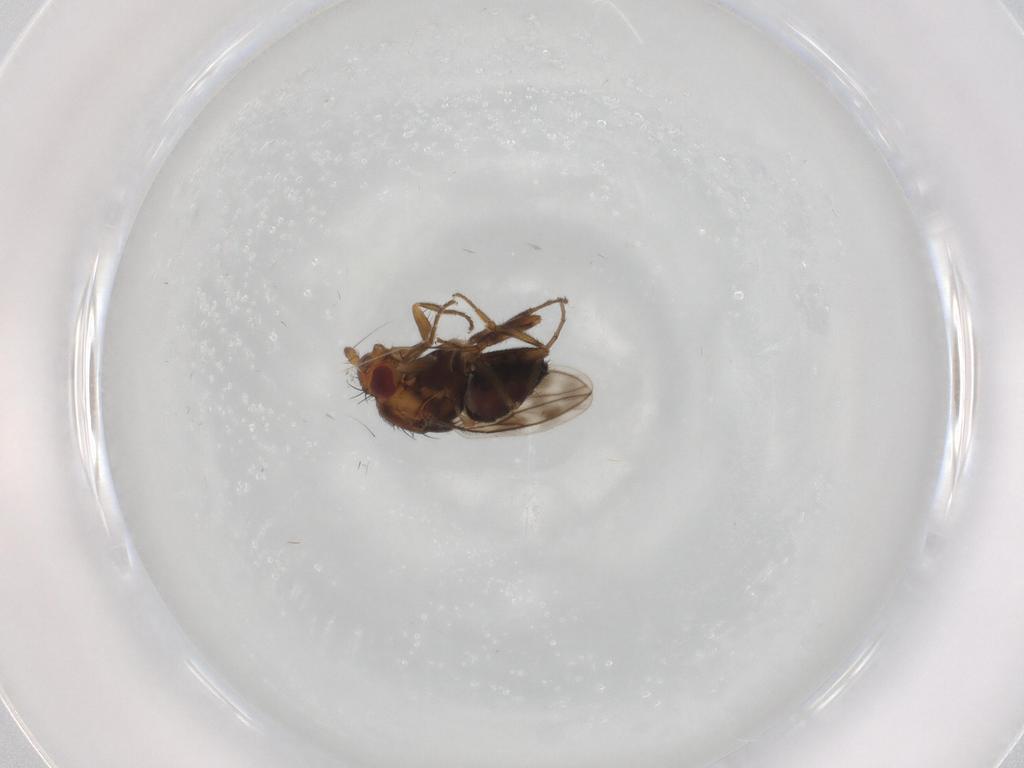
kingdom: Animalia
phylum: Arthropoda
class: Insecta
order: Diptera
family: Sphaeroceridae
